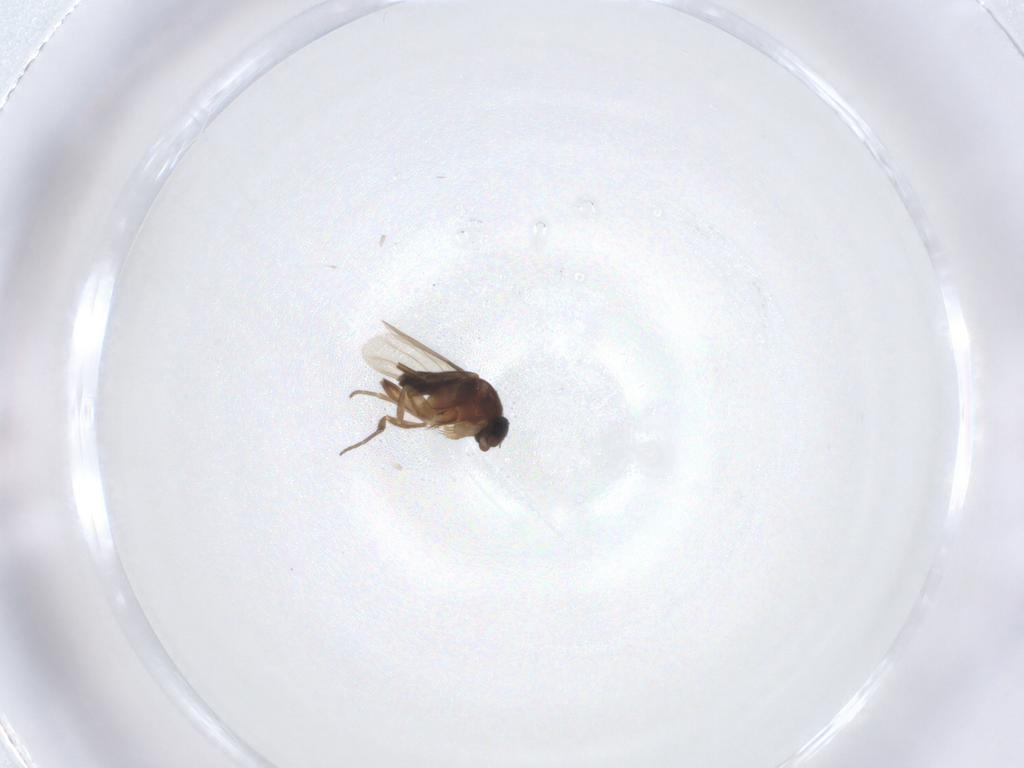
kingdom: Animalia
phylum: Arthropoda
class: Insecta
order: Diptera
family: Phoridae
